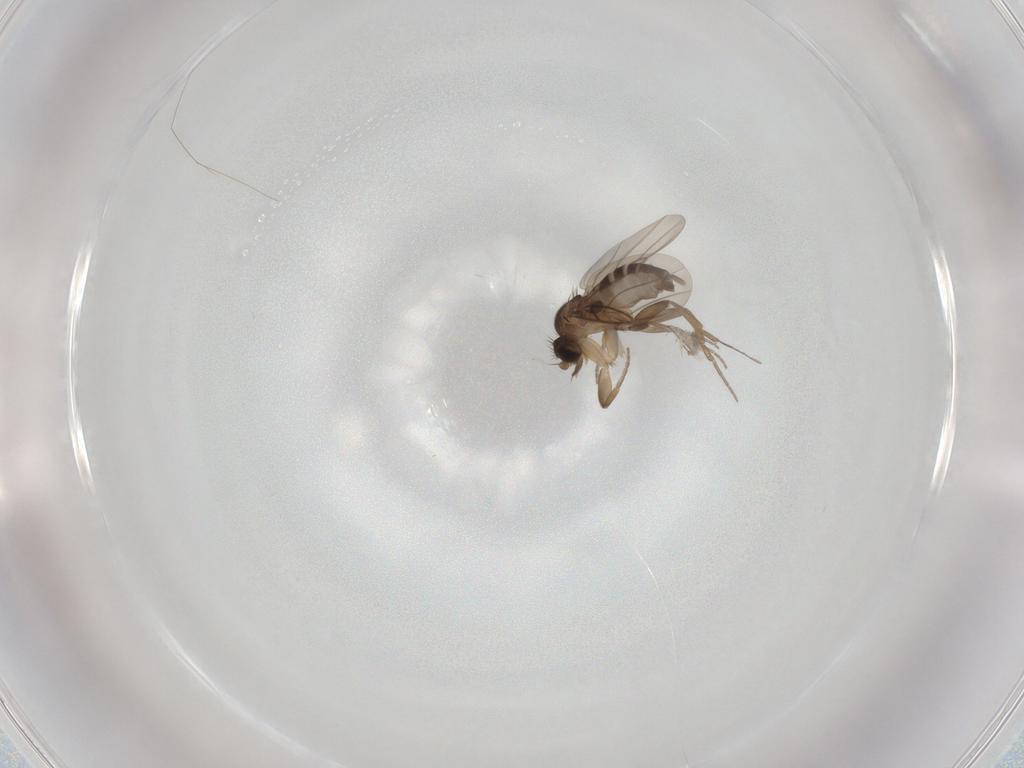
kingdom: Animalia
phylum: Arthropoda
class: Insecta
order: Diptera
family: Phoridae
